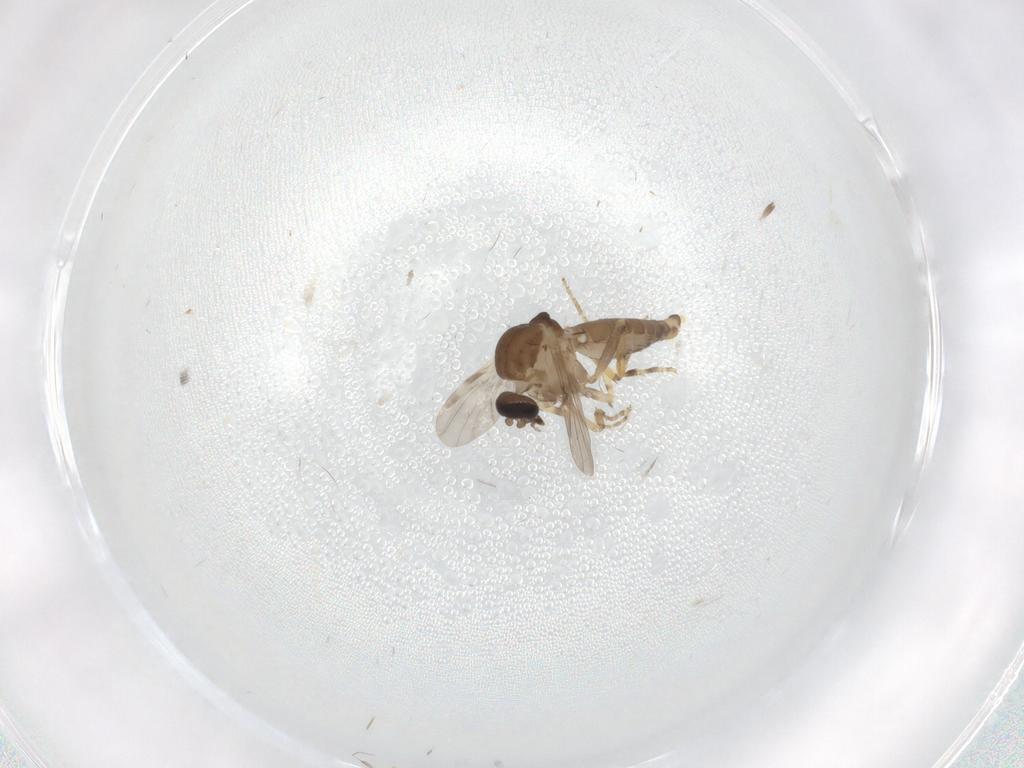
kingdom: Animalia
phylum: Arthropoda
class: Insecta
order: Diptera
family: Chironomidae
